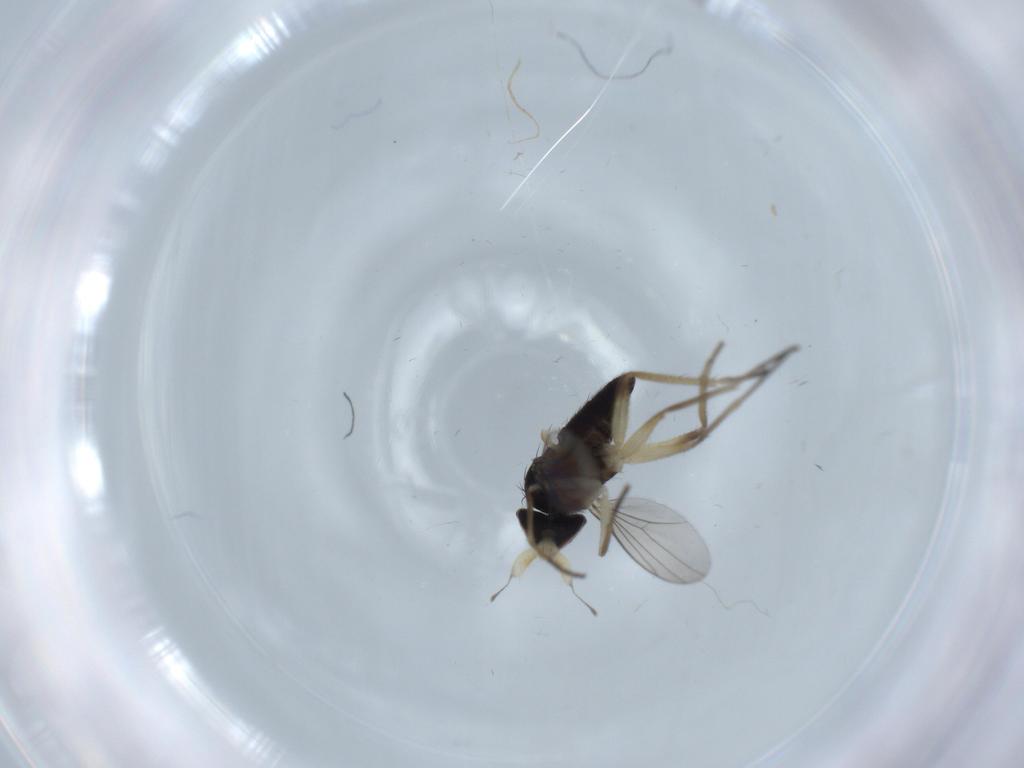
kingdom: Animalia
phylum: Arthropoda
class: Insecta
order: Diptera
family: Dolichopodidae
